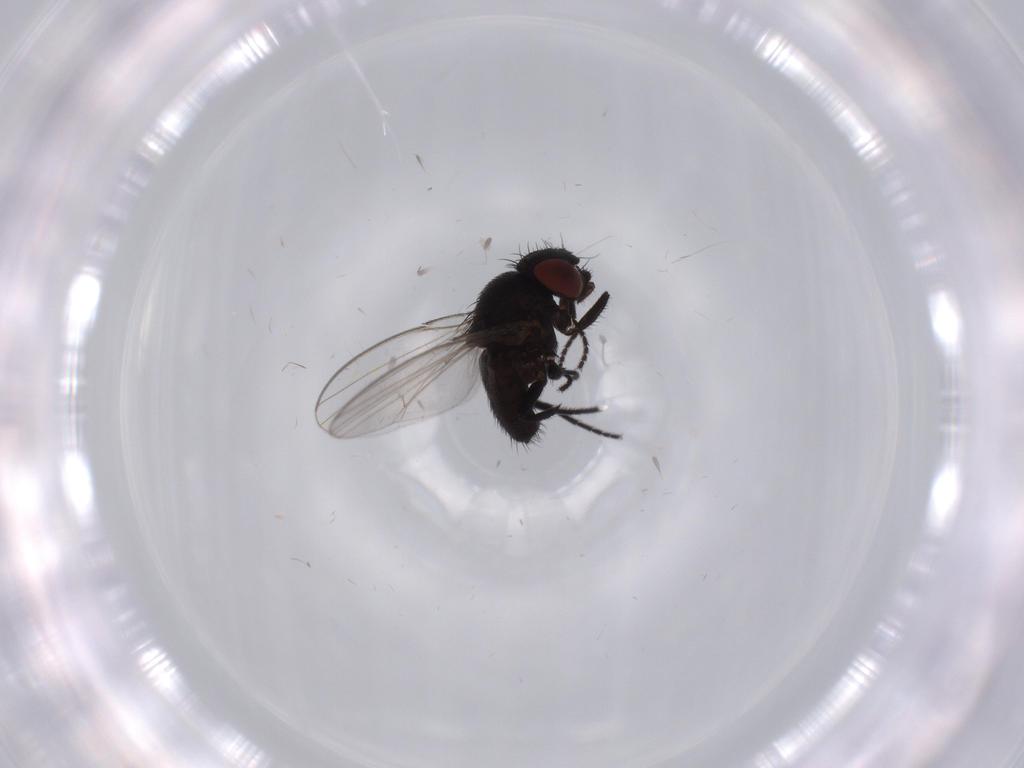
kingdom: Animalia
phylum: Arthropoda
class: Insecta
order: Diptera
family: Milichiidae
